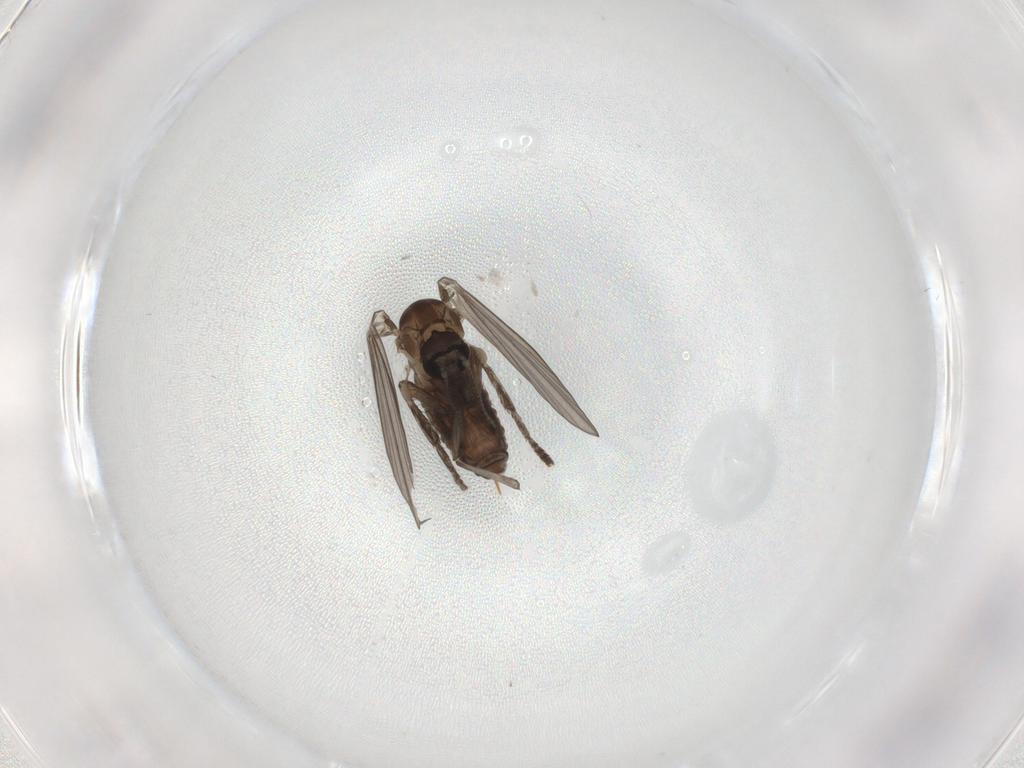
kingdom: Animalia
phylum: Arthropoda
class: Insecta
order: Diptera
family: Psychodidae
